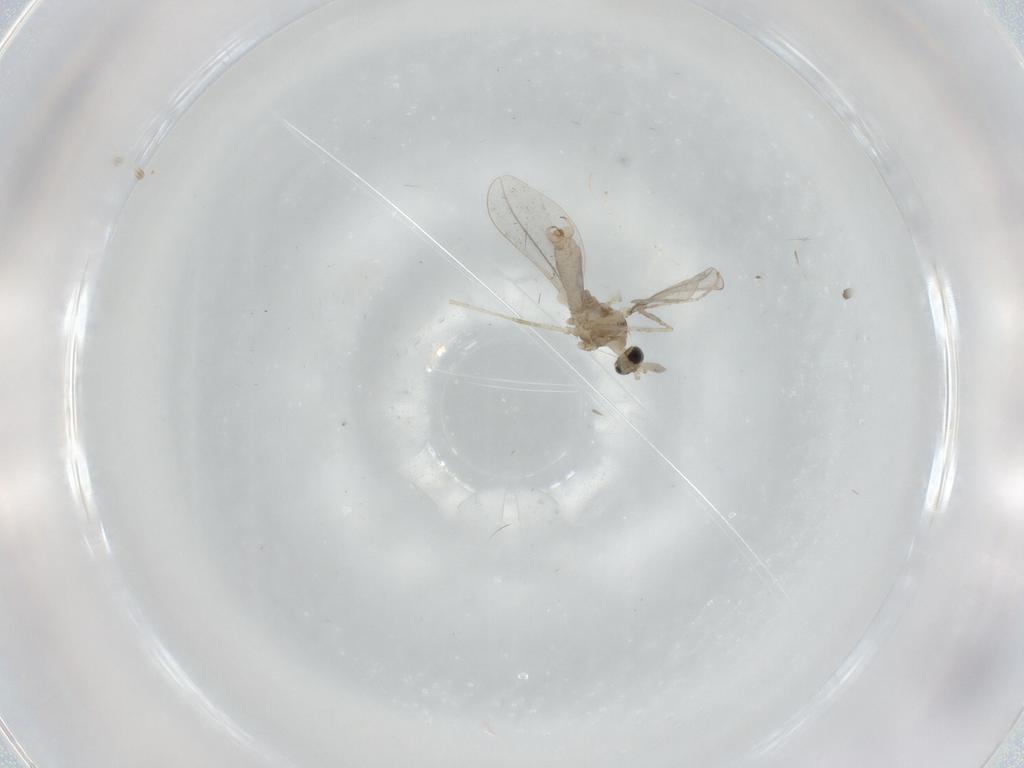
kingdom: Animalia
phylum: Arthropoda
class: Insecta
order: Diptera
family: Cecidomyiidae
